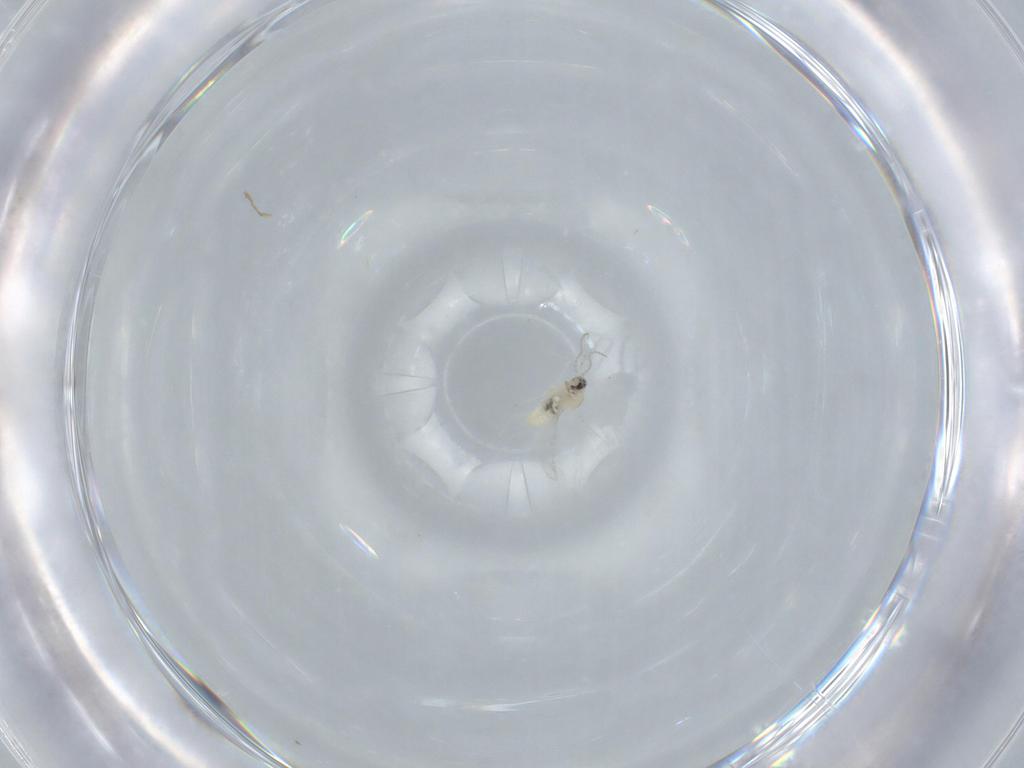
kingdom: Animalia
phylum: Arthropoda
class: Insecta
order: Diptera
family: Cecidomyiidae
